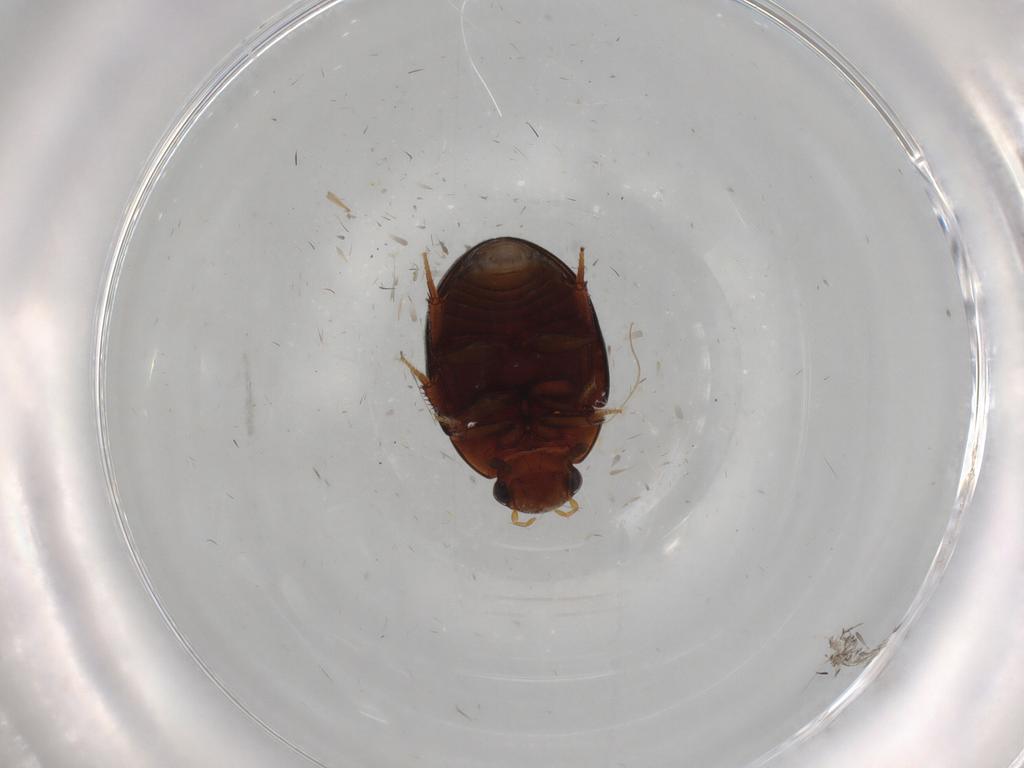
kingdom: Animalia
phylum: Arthropoda
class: Insecta
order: Coleoptera
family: Hydrophilidae
